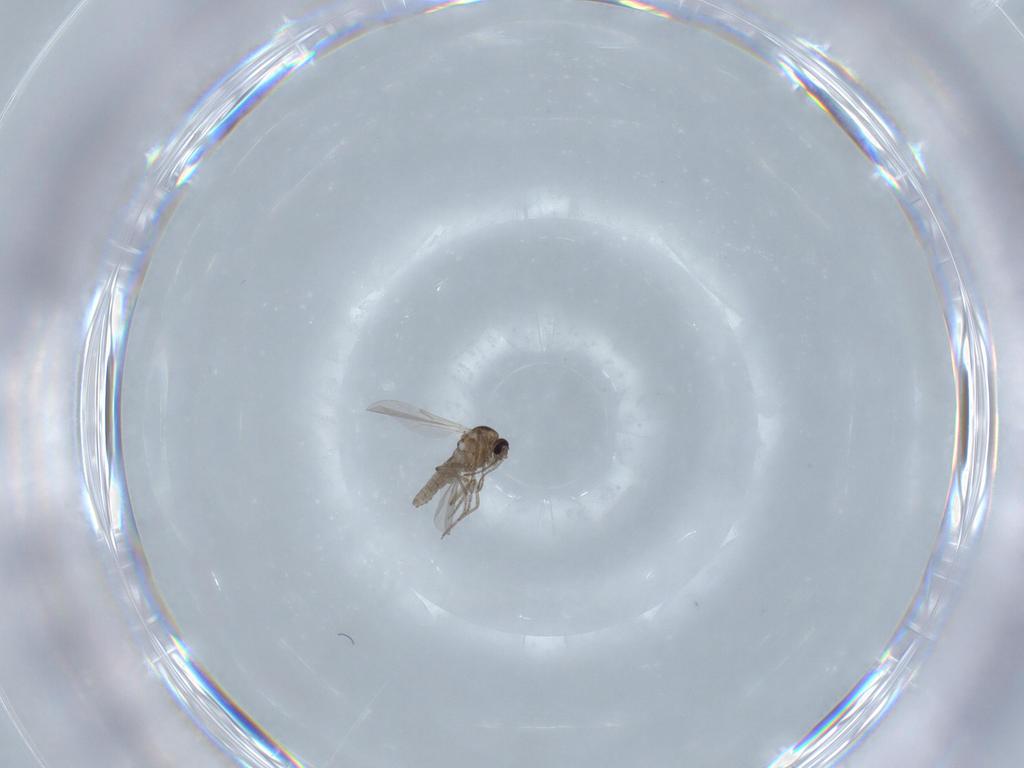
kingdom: Animalia
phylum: Arthropoda
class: Insecta
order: Diptera
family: Ceratopogonidae
